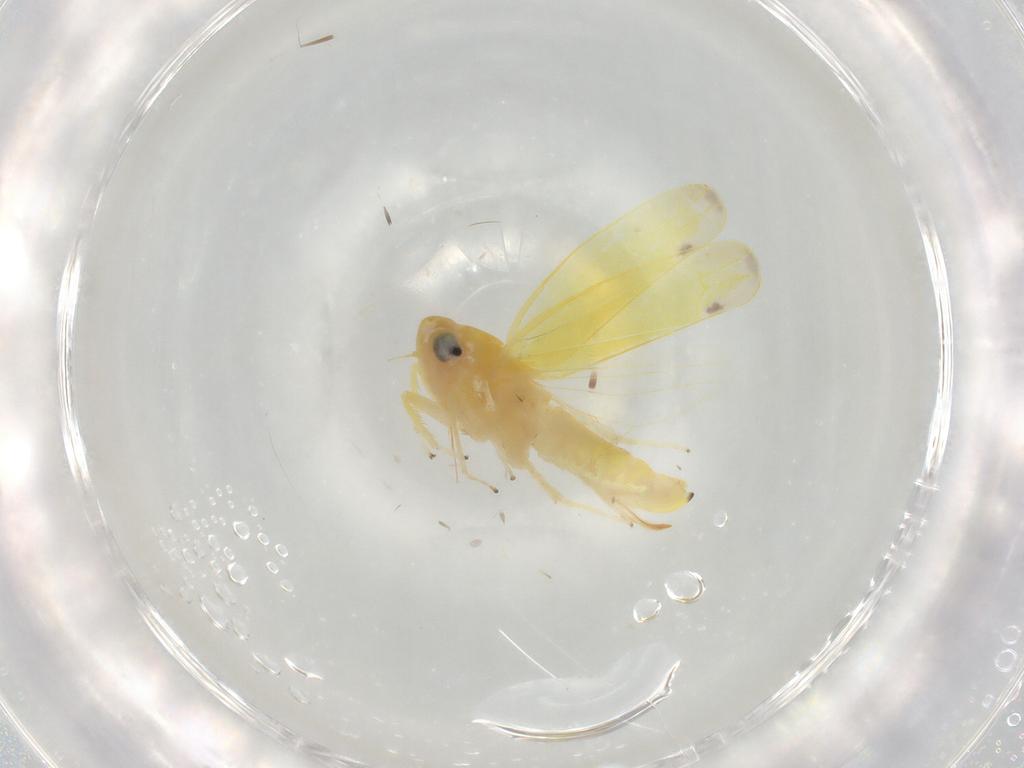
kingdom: Animalia
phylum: Arthropoda
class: Insecta
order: Hemiptera
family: Cicadellidae
